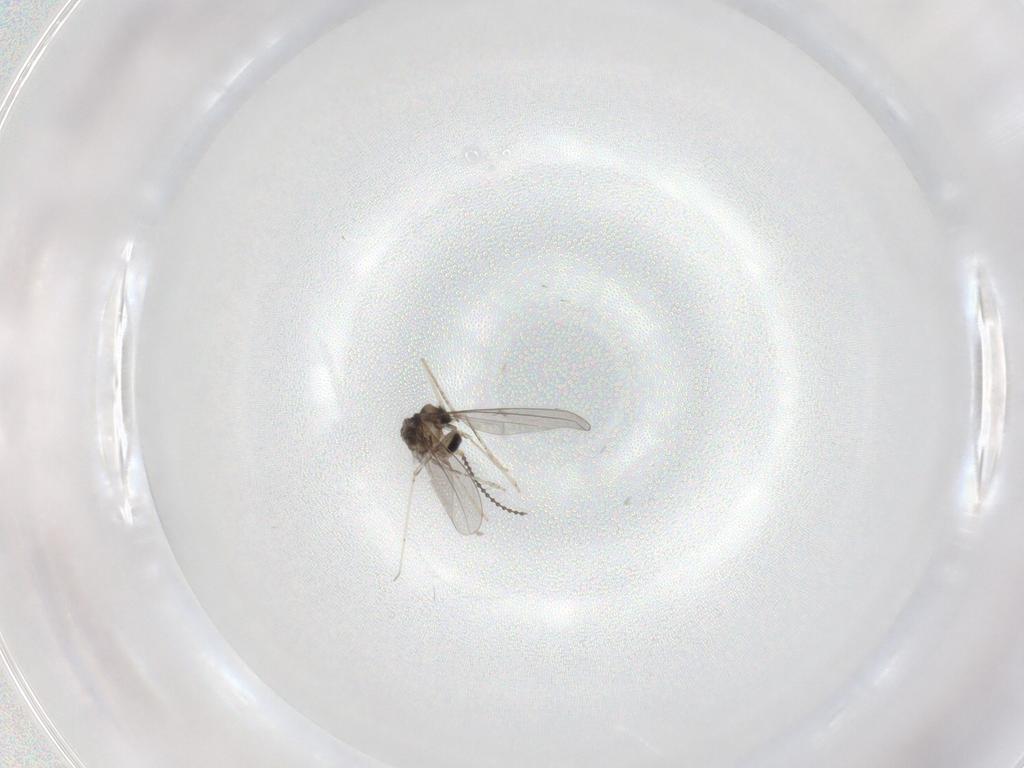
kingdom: Animalia
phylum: Arthropoda
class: Insecta
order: Diptera
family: Cecidomyiidae
